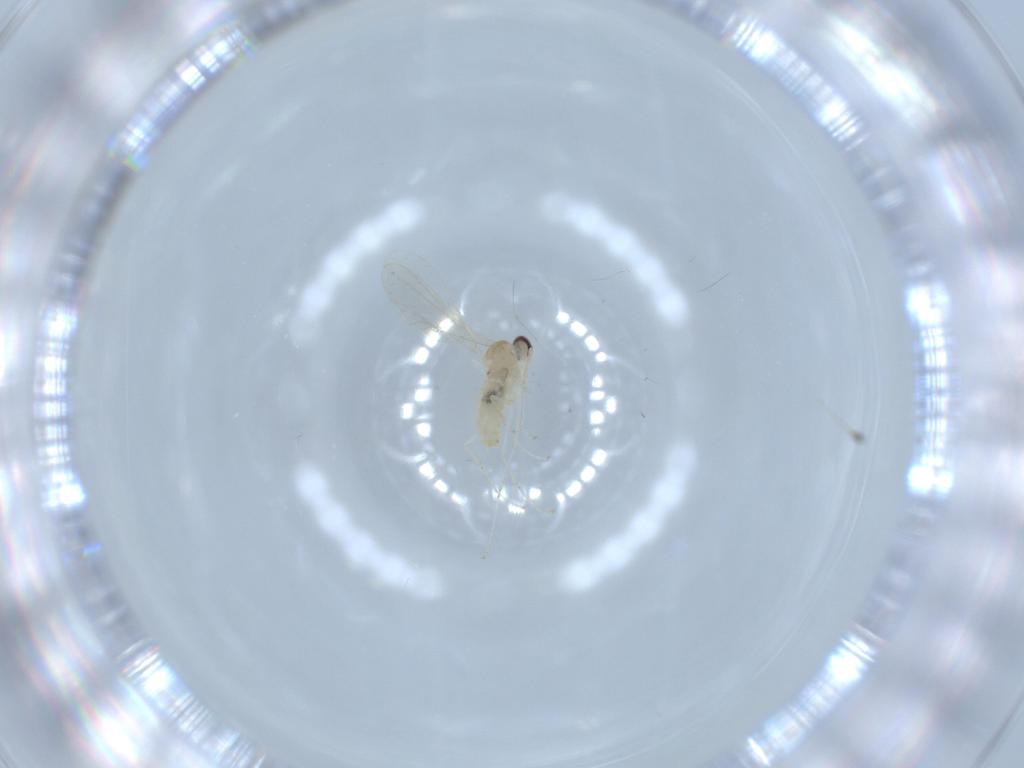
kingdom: Animalia
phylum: Arthropoda
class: Insecta
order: Diptera
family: Cecidomyiidae
